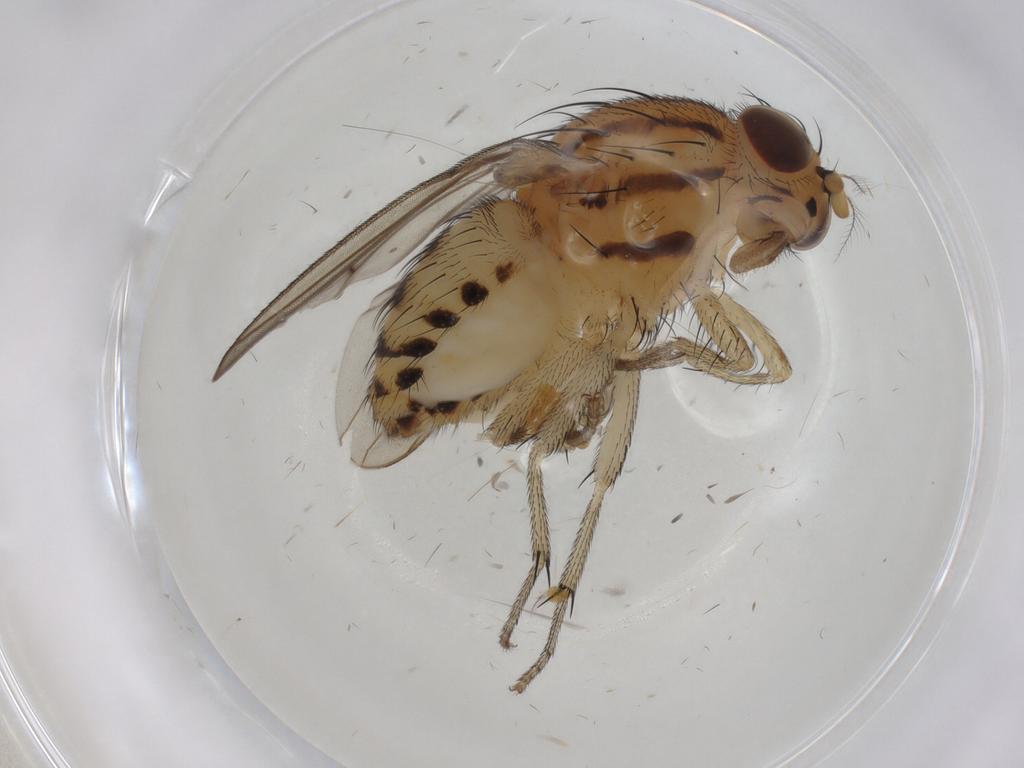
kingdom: Animalia
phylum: Arthropoda
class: Insecta
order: Diptera
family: Lauxaniidae
